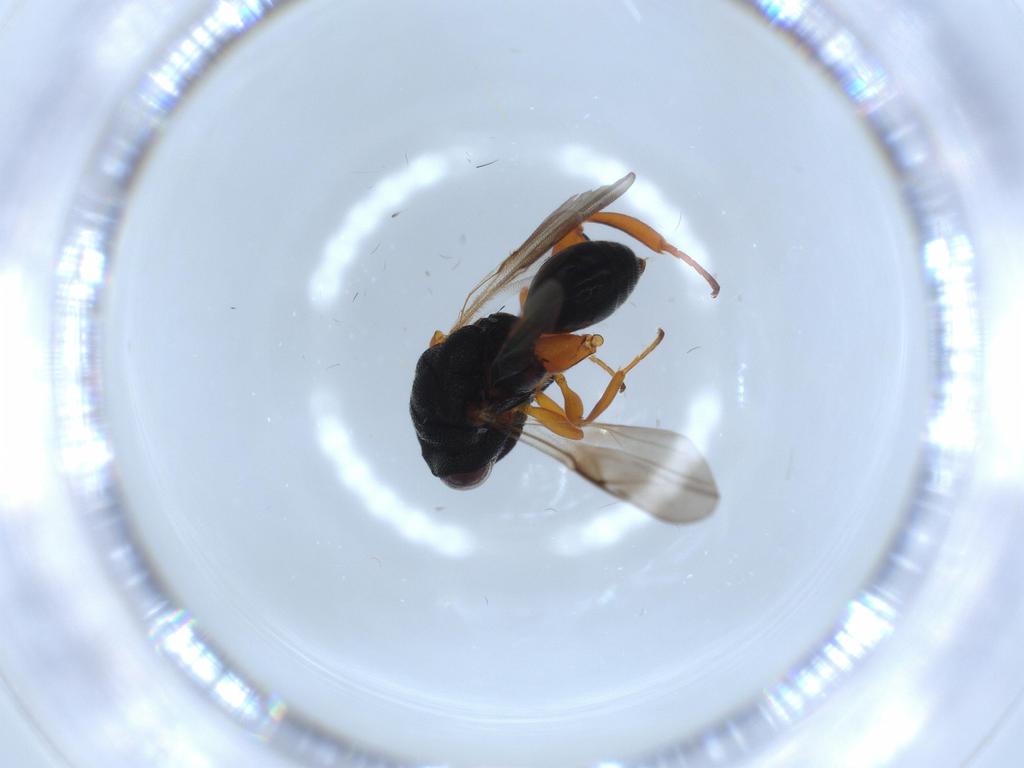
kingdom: Animalia
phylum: Arthropoda
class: Insecta
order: Hymenoptera
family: Chalcididae
